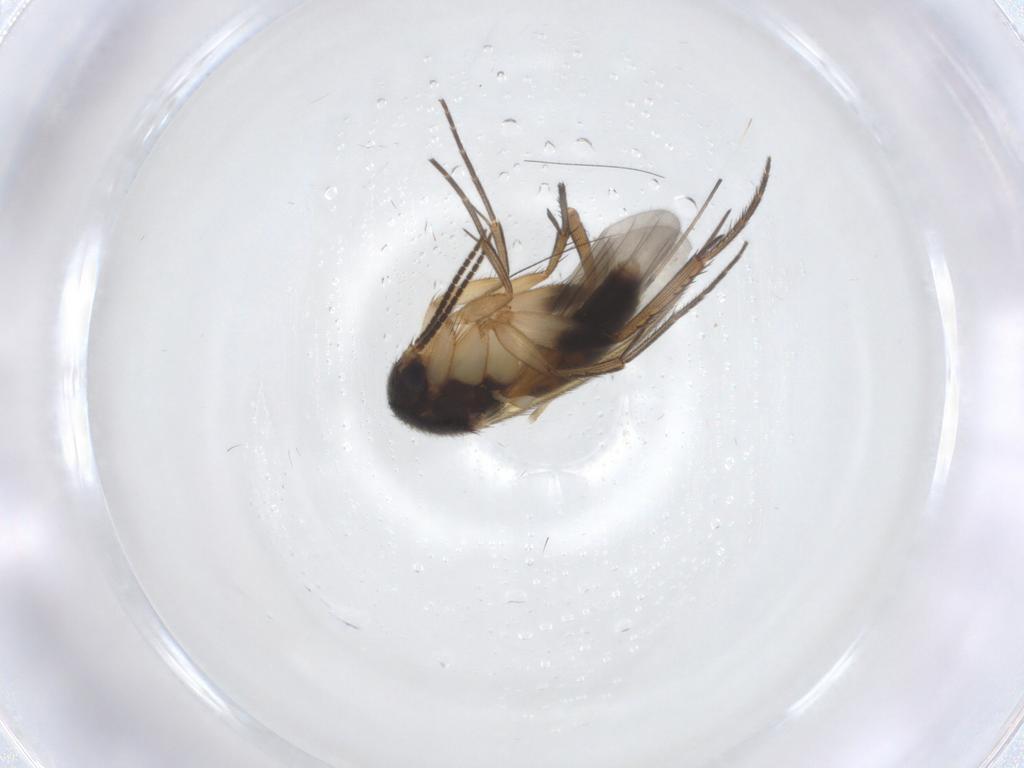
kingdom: Animalia
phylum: Arthropoda
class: Insecta
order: Diptera
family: Mycetophilidae
